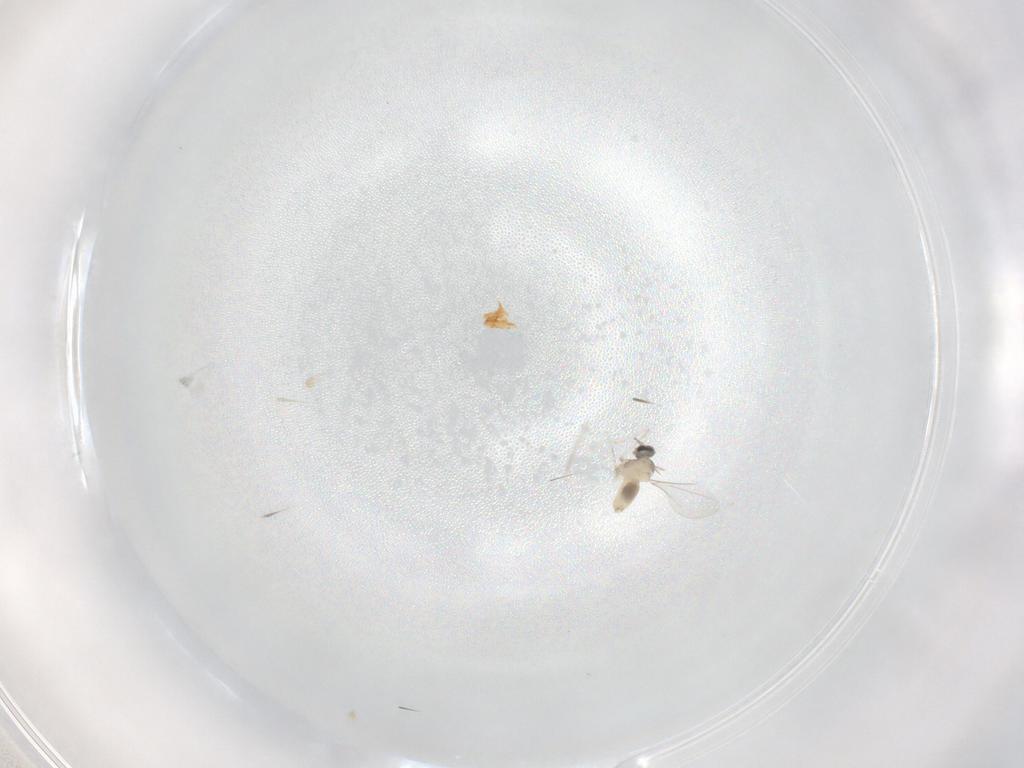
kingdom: Animalia
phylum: Arthropoda
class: Insecta
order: Diptera
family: Cecidomyiidae
